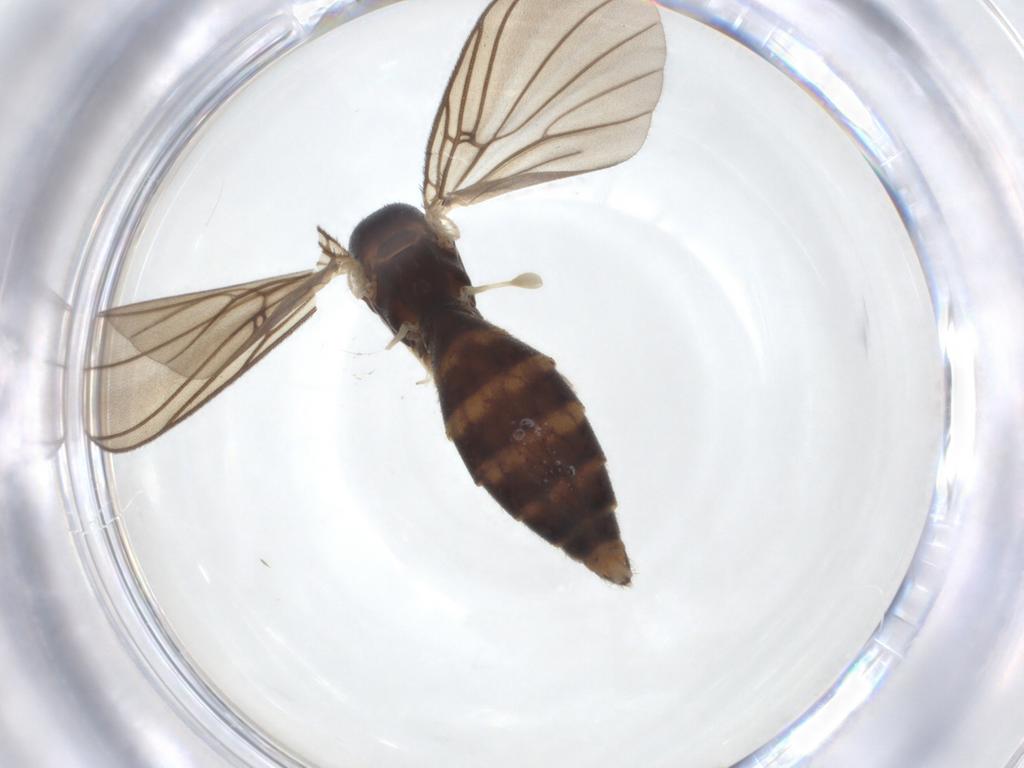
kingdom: Animalia
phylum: Arthropoda
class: Insecta
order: Diptera
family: Mycetophilidae
